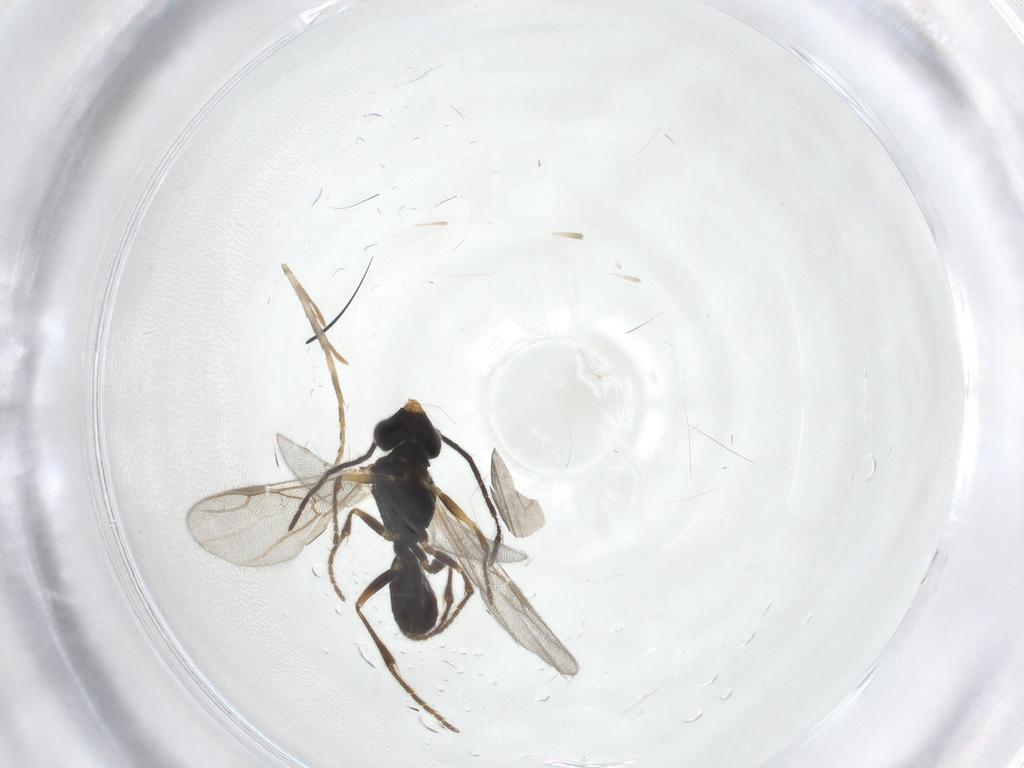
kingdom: Animalia
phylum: Arthropoda
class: Insecta
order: Hymenoptera
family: Dryinidae
